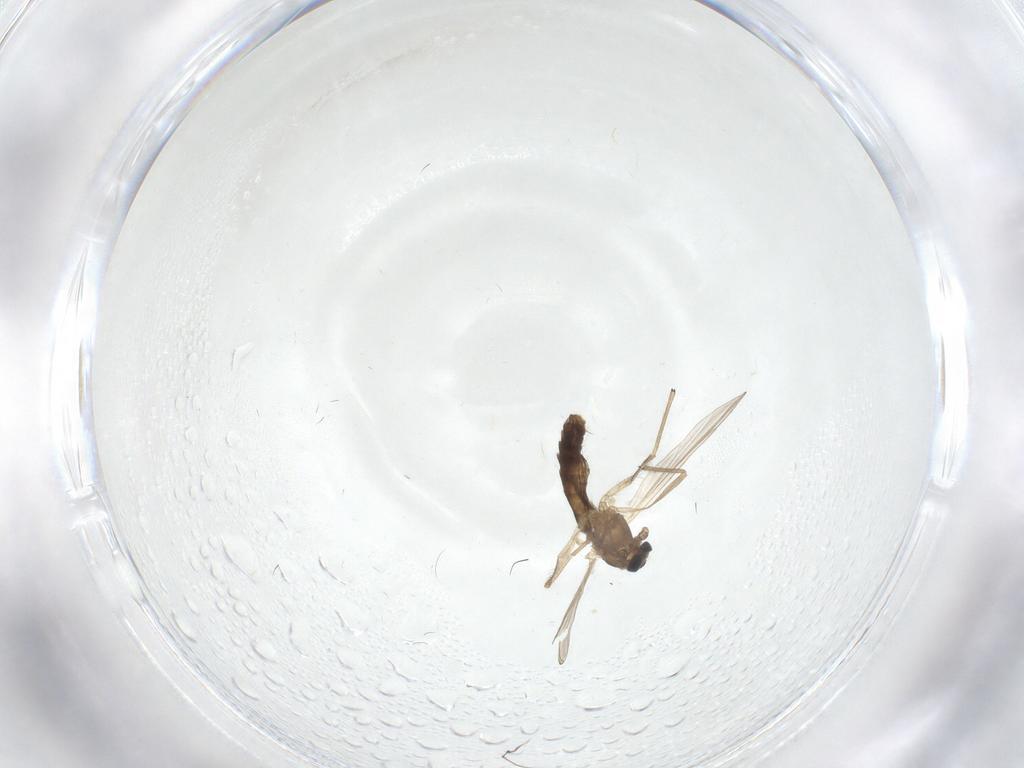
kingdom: Animalia
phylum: Arthropoda
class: Insecta
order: Diptera
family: Chironomidae
